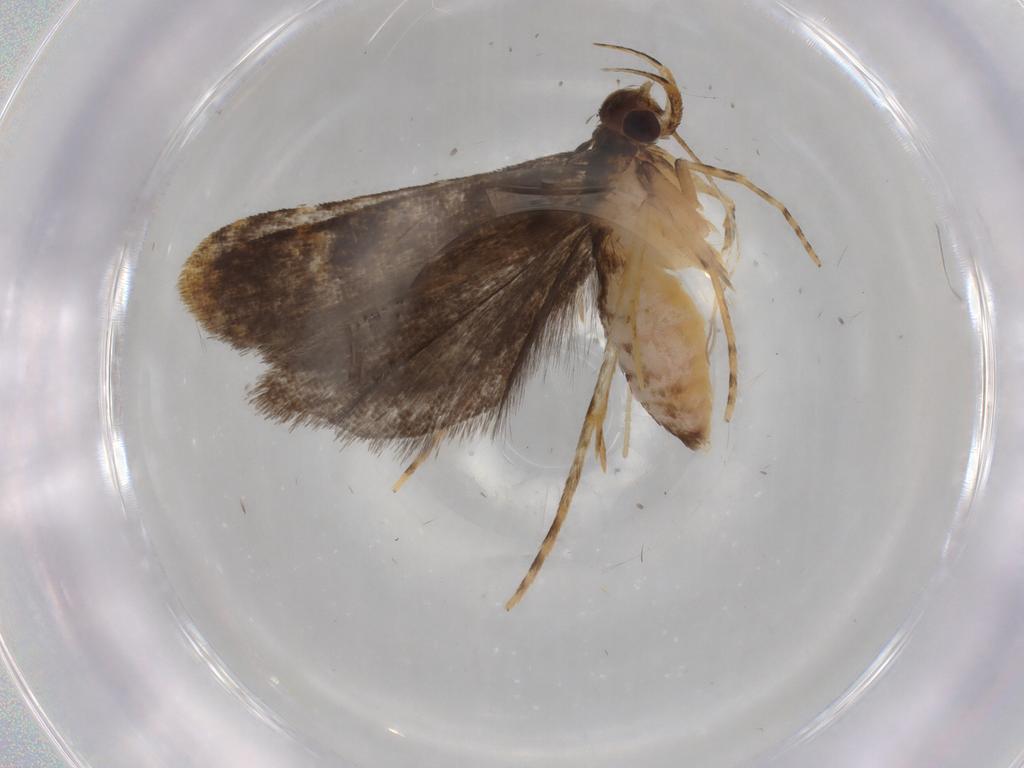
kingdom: Animalia
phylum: Arthropoda
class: Insecta
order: Lepidoptera
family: Cosmopterigidae
